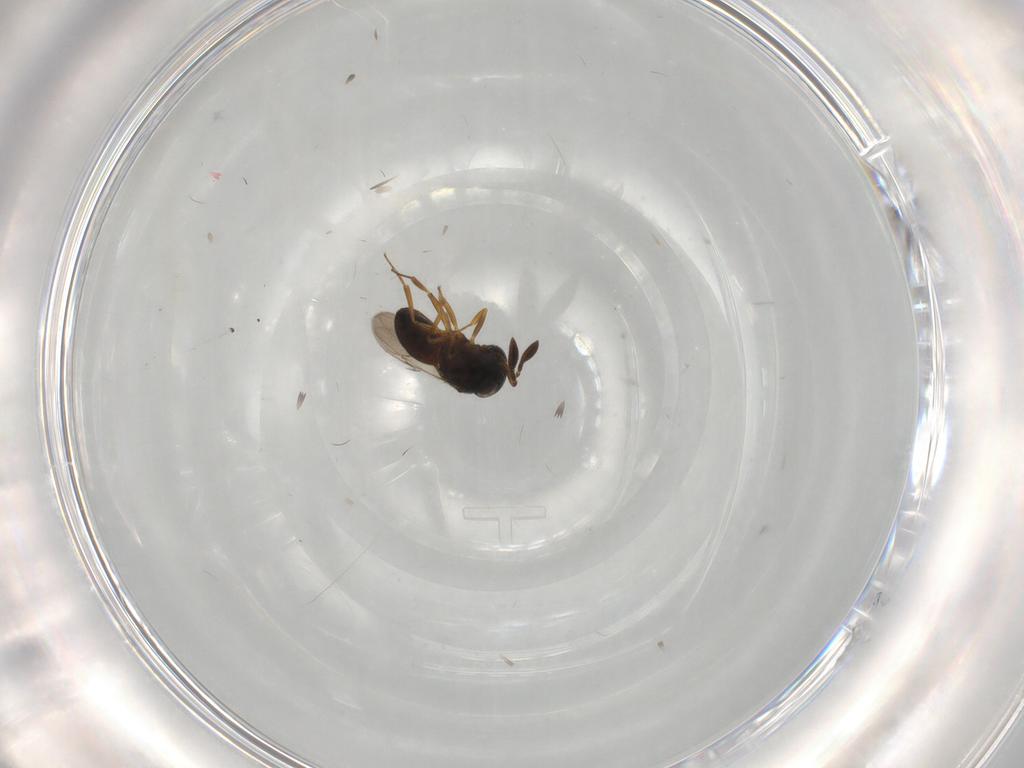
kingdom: Animalia
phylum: Arthropoda
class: Insecta
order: Hymenoptera
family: Scelionidae
